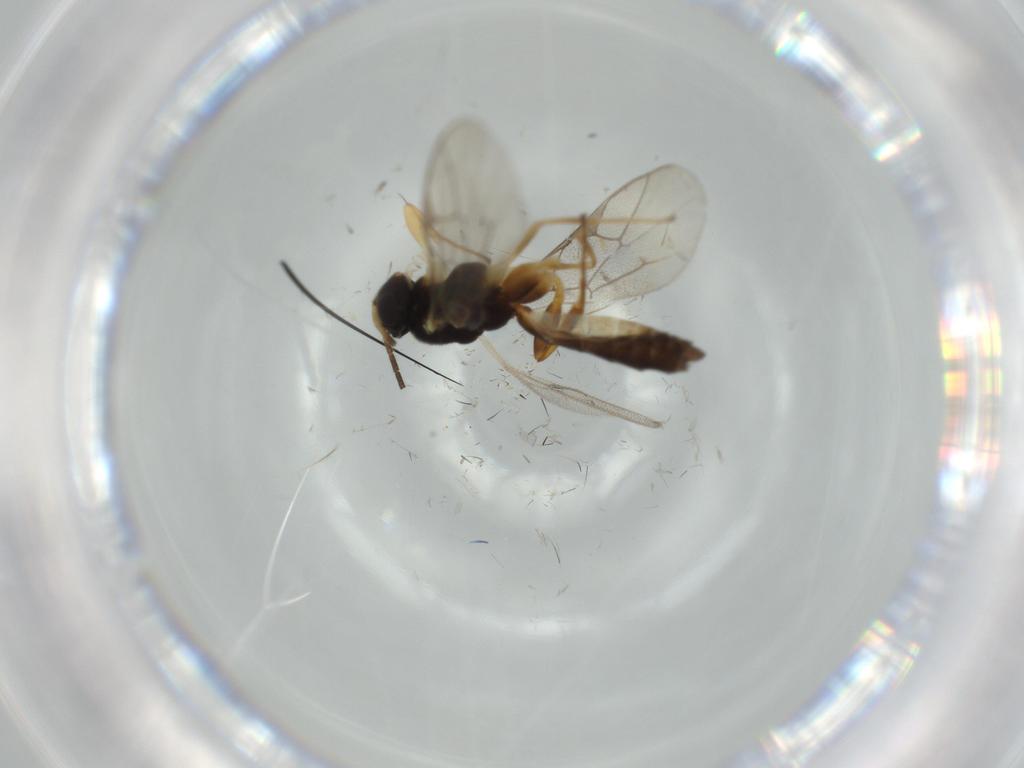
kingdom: Animalia
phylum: Arthropoda
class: Insecta
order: Hymenoptera
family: Ichneumonidae
